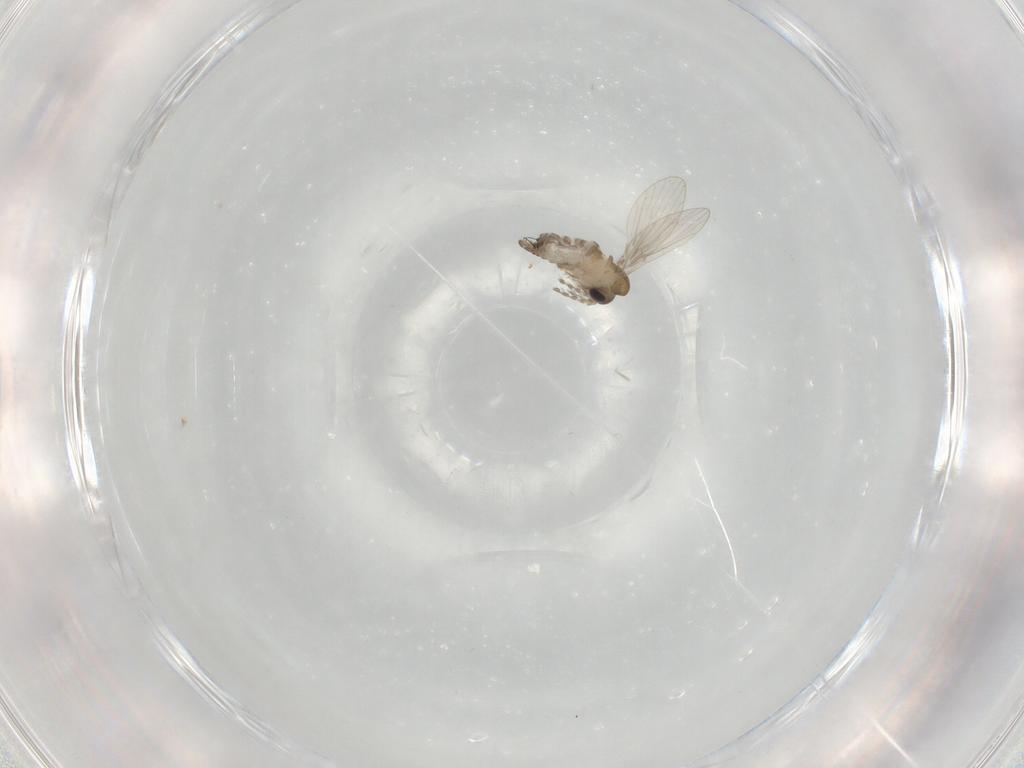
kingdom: Animalia
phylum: Arthropoda
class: Insecta
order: Diptera
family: Psychodidae
